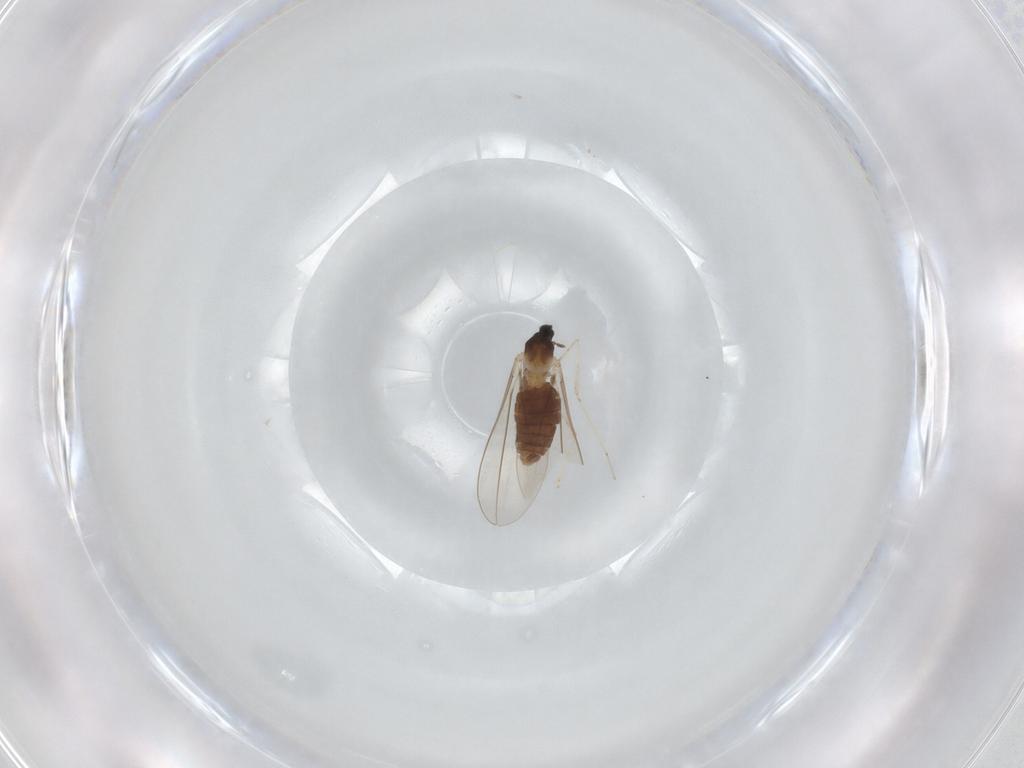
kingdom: Animalia
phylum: Arthropoda
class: Insecta
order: Diptera
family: Cecidomyiidae
